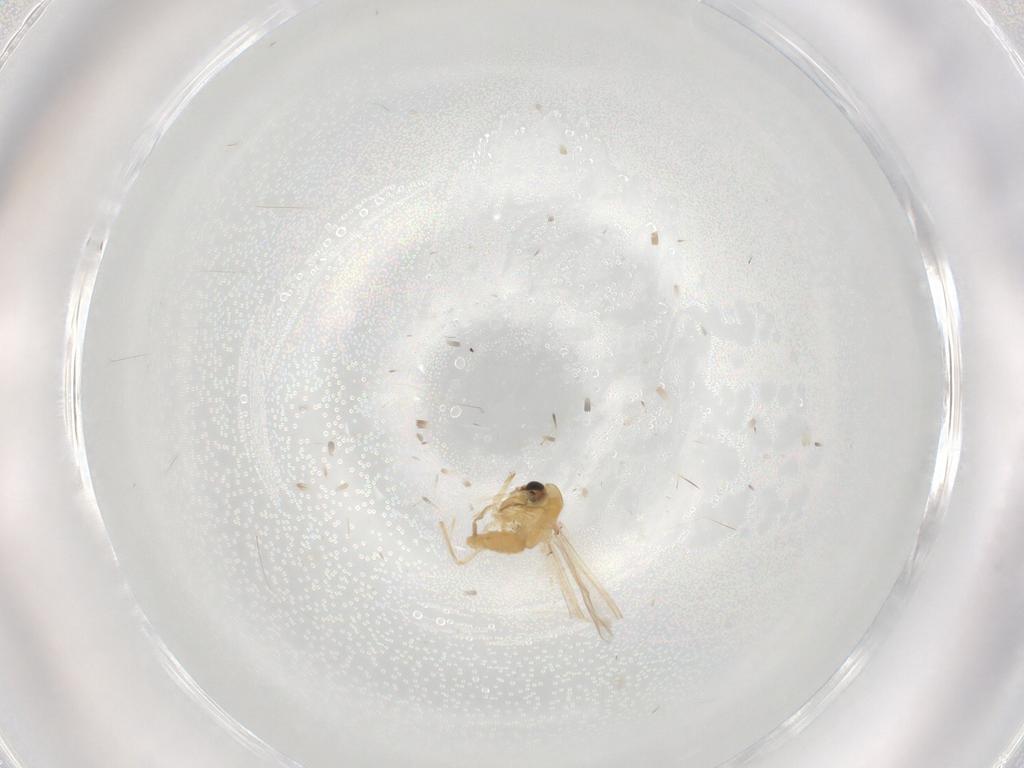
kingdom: Animalia
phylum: Arthropoda
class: Insecta
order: Diptera
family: Chironomidae
